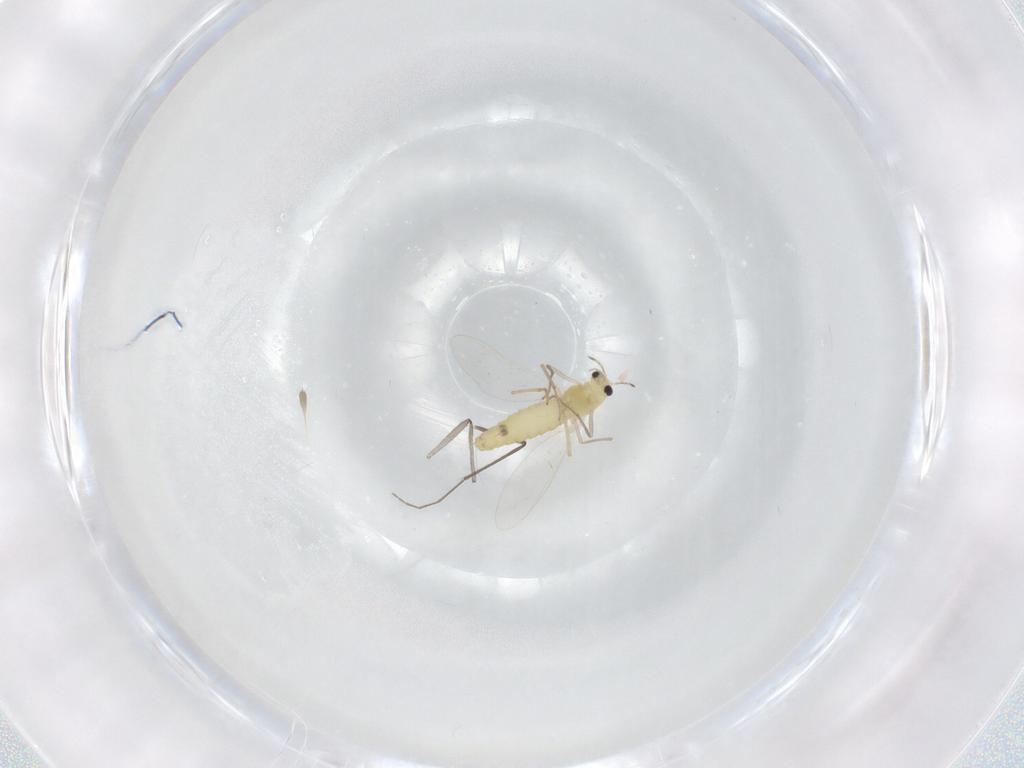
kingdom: Animalia
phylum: Arthropoda
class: Insecta
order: Diptera
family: Chironomidae
